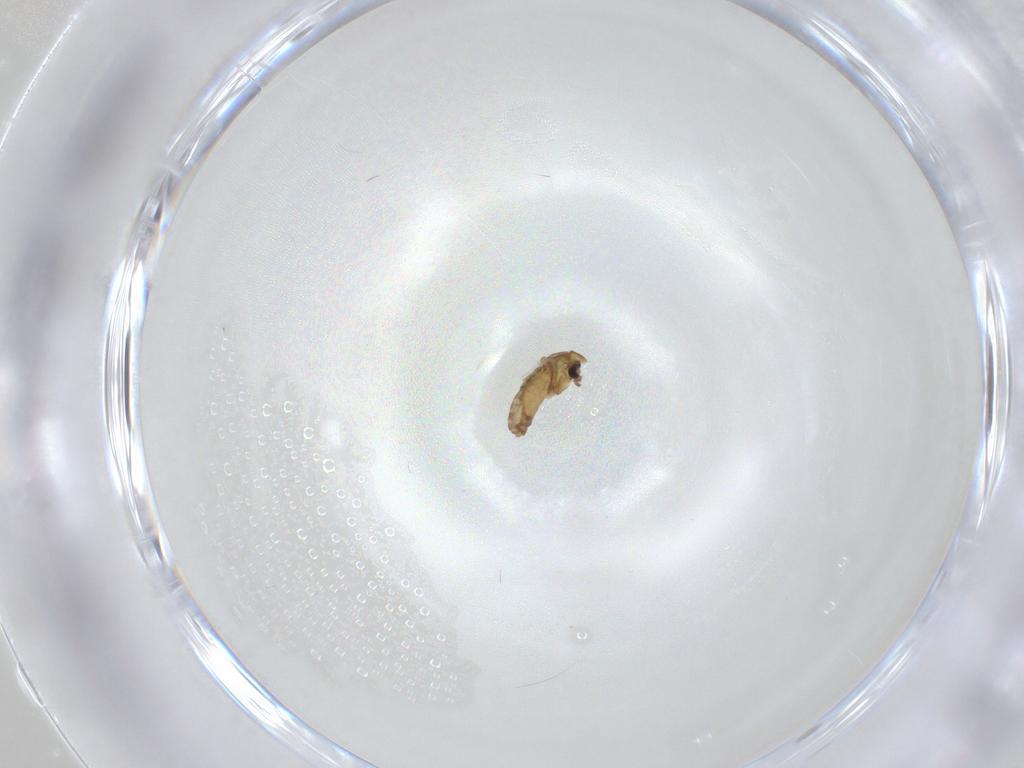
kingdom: Animalia
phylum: Arthropoda
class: Insecta
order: Diptera
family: Chironomidae
